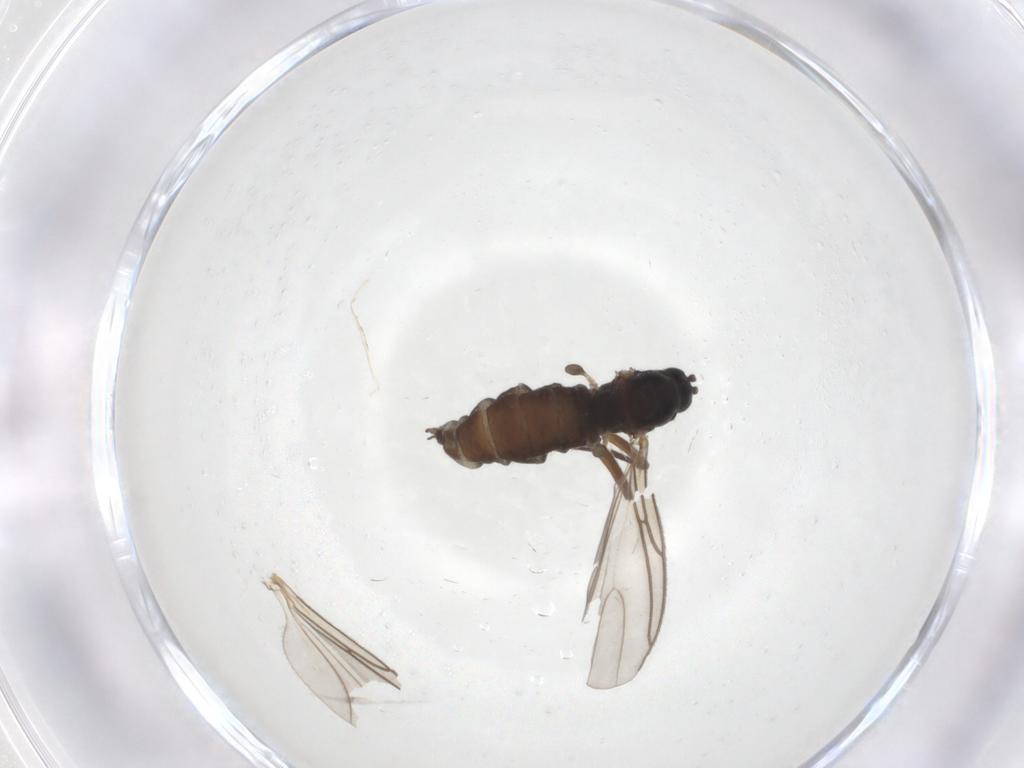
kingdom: Animalia
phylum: Arthropoda
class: Insecta
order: Diptera
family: Sciaridae
